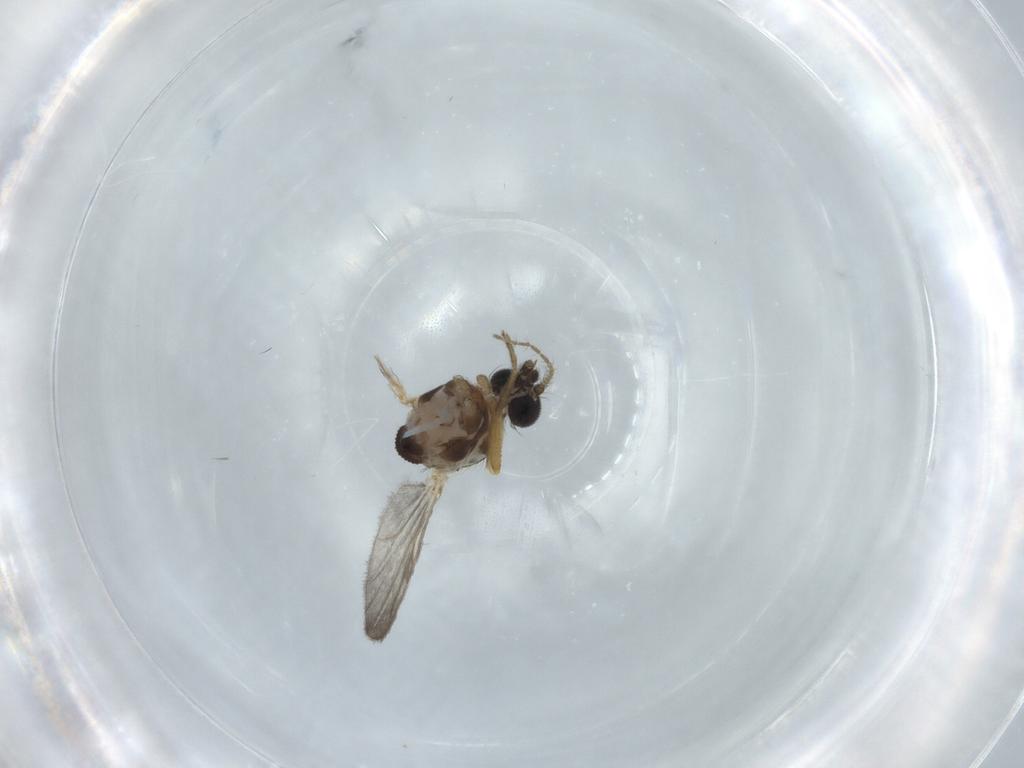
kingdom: Animalia
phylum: Arthropoda
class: Insecta
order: Diptera
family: Ceratopogonidae
